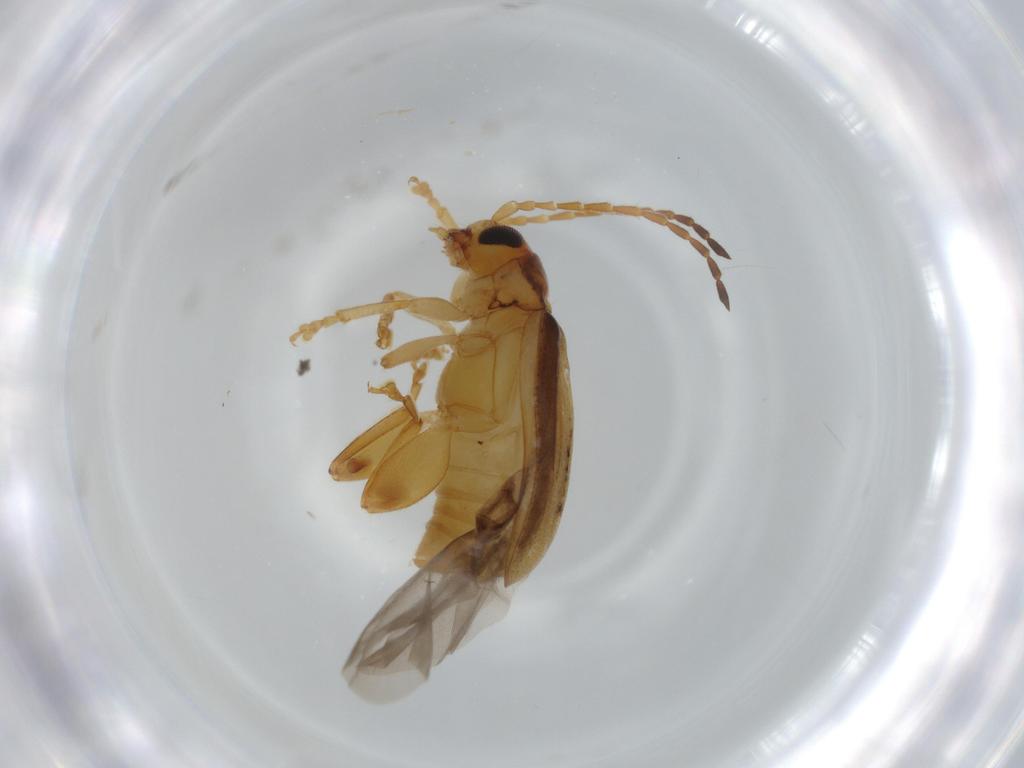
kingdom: Animalia
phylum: Arthropoda
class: Insecta
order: Coleoptera
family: Chrysomelidae
